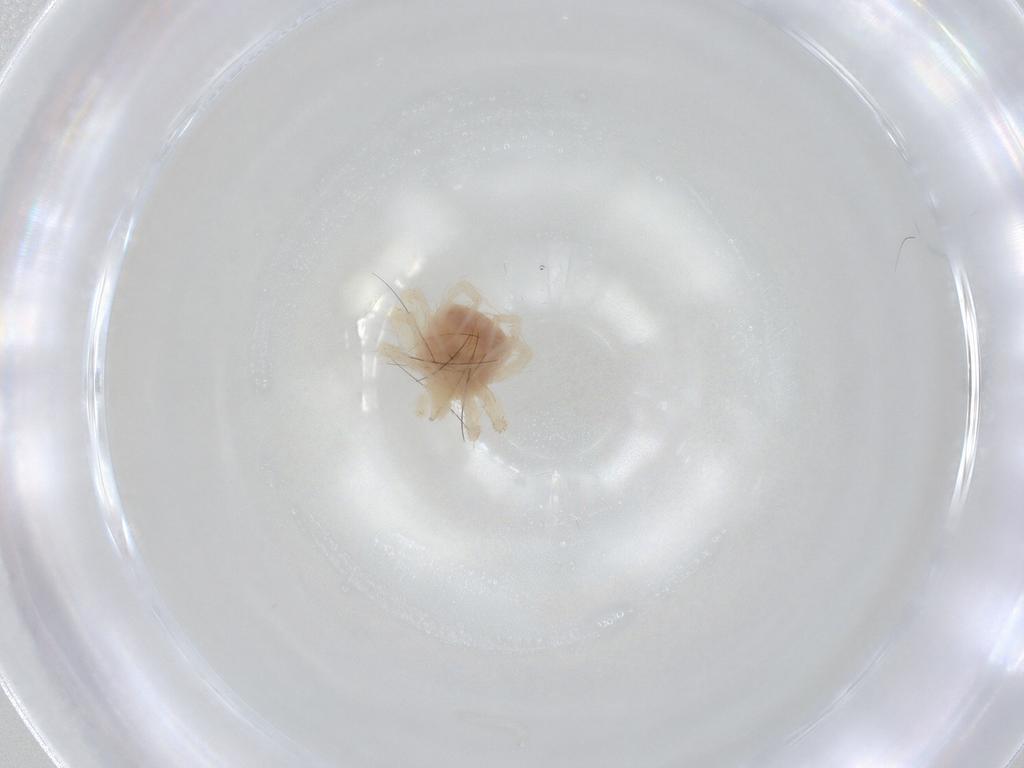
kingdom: Animalia
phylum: Arthropoda
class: Arachnida
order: Trombidiformes
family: Anystidae
